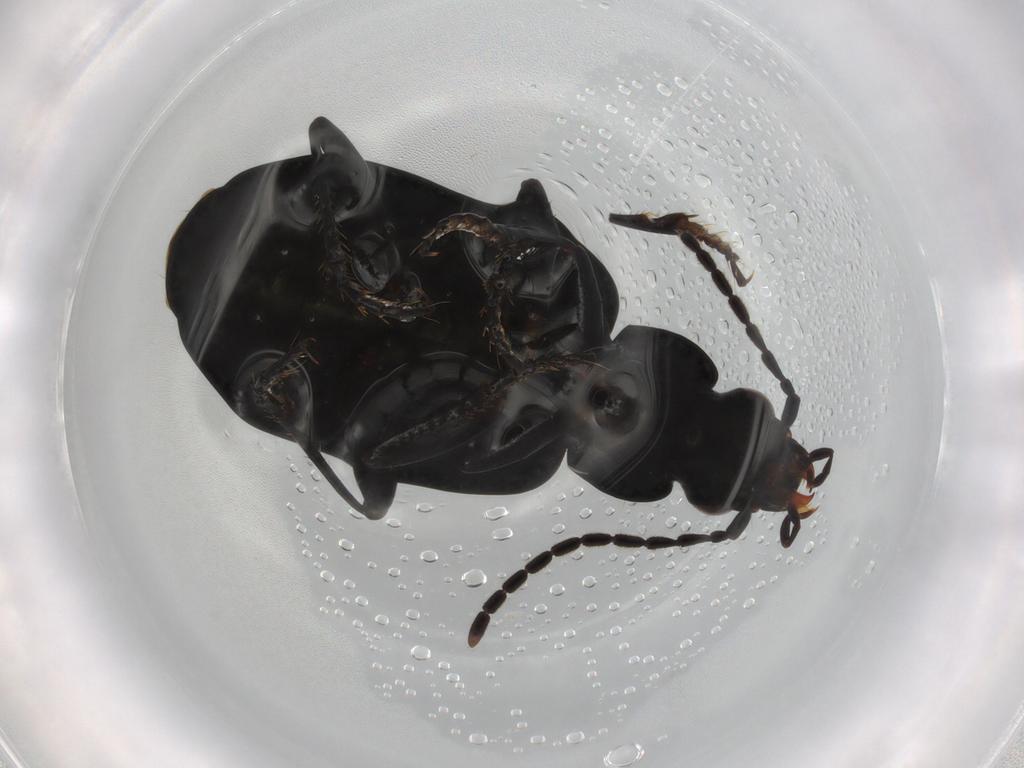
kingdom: Animalia
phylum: Arthropoda
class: Insecta
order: Coleoptera
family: Carabidae
